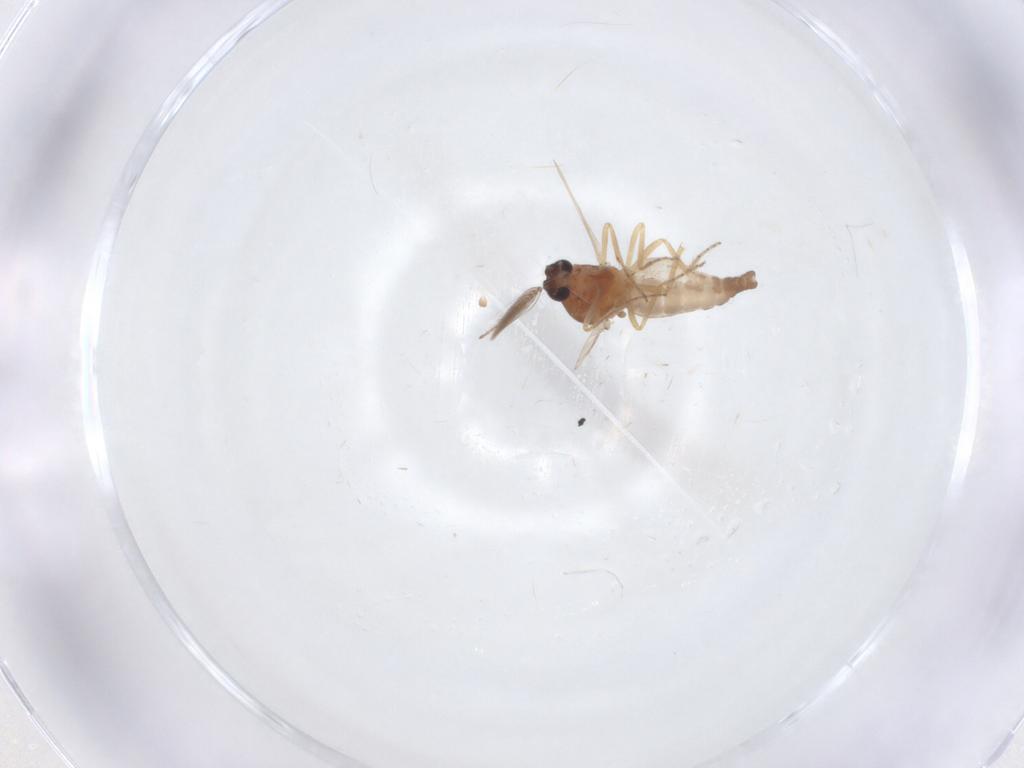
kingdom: Animalia
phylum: Arthropoda
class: Insecta
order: Diptera
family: Ceratopogonidae
